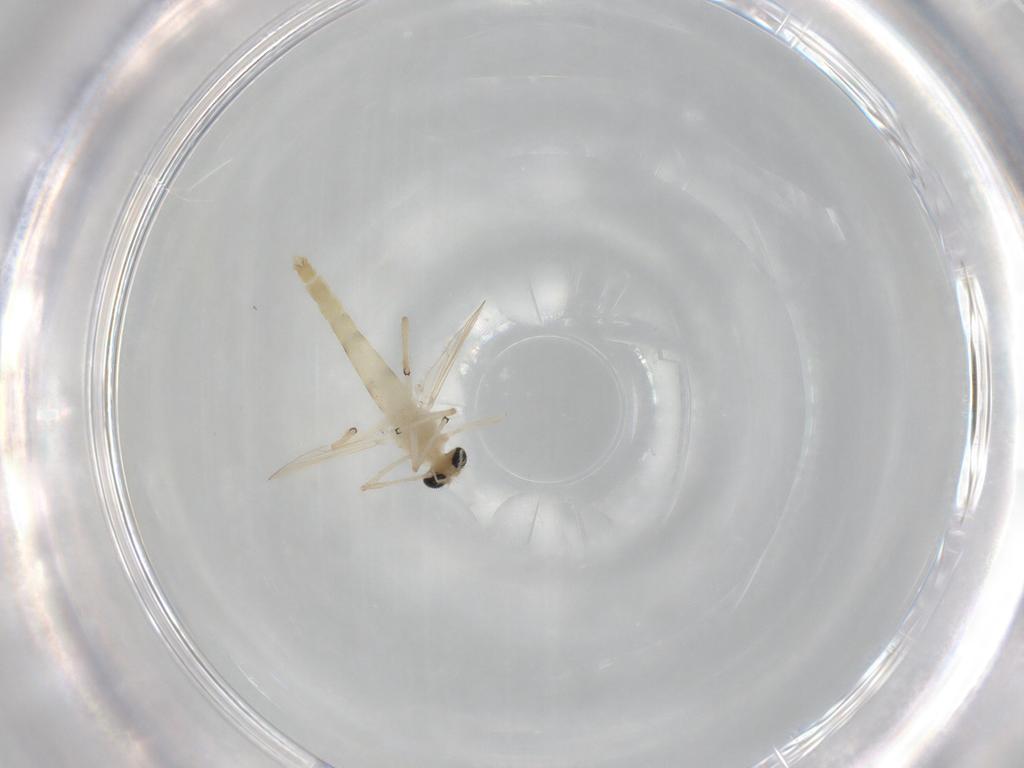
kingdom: Animalia
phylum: Arthropoda
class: Insecta
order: Diptera
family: Chironomidae
